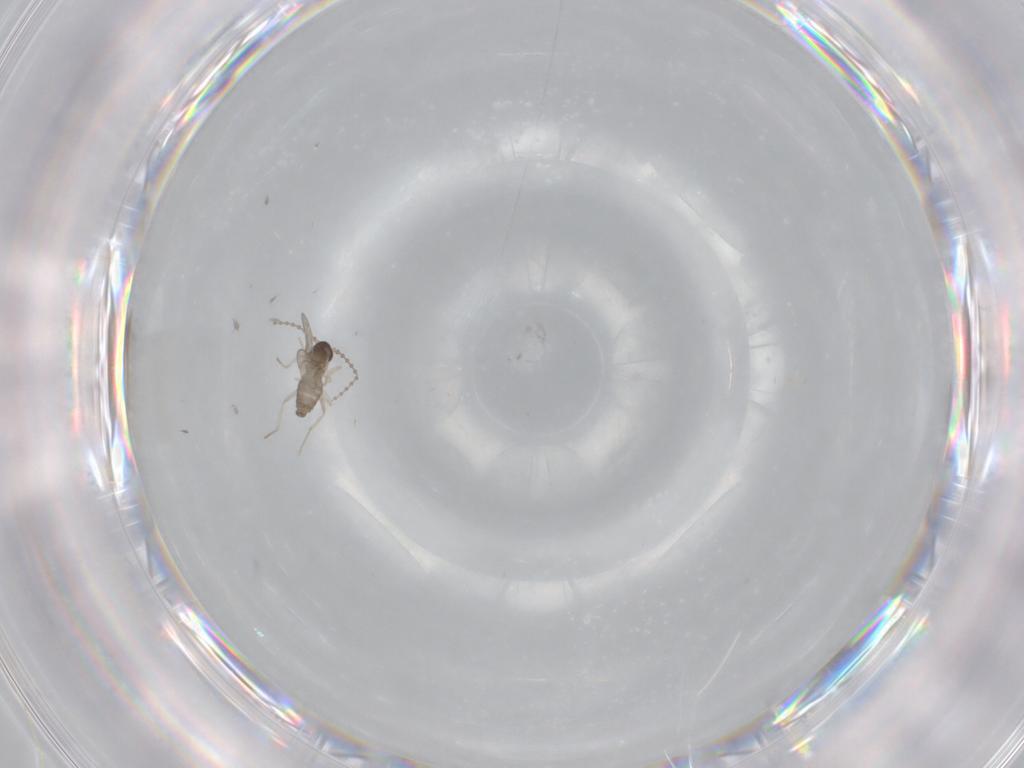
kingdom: Animalia
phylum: Arthropoda
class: Insecta
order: Diptera
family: Cecidomyiidae
